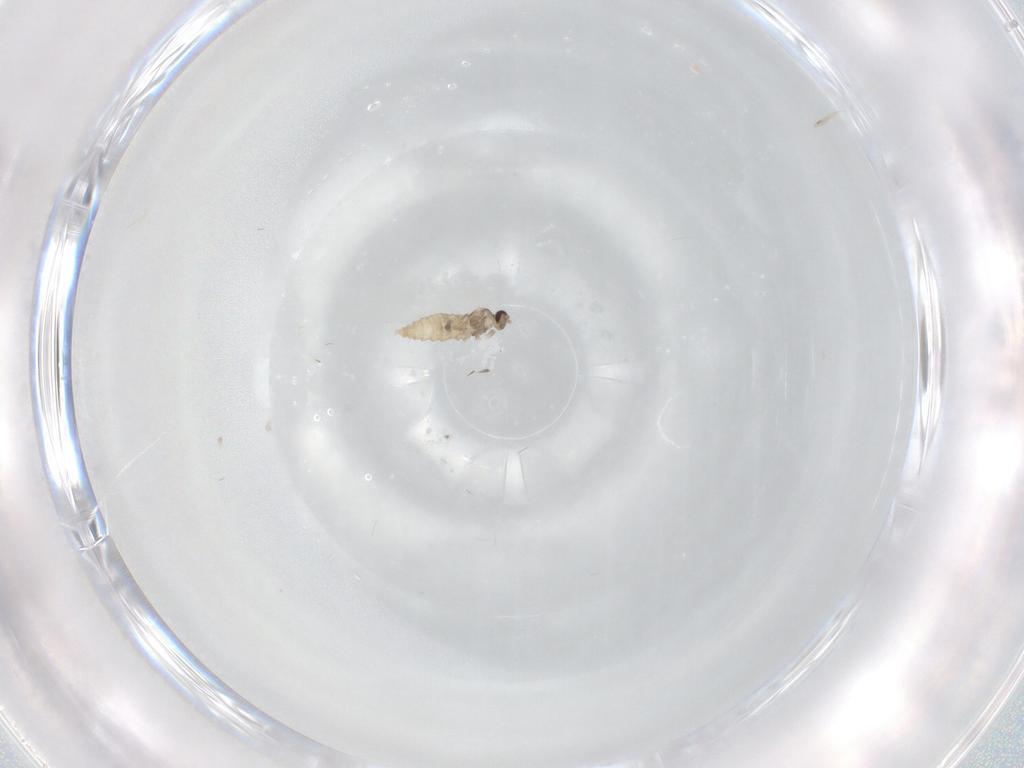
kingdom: Animalia
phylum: Arthropoda
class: Insecta
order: Diptera
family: Cecidomyiidae
